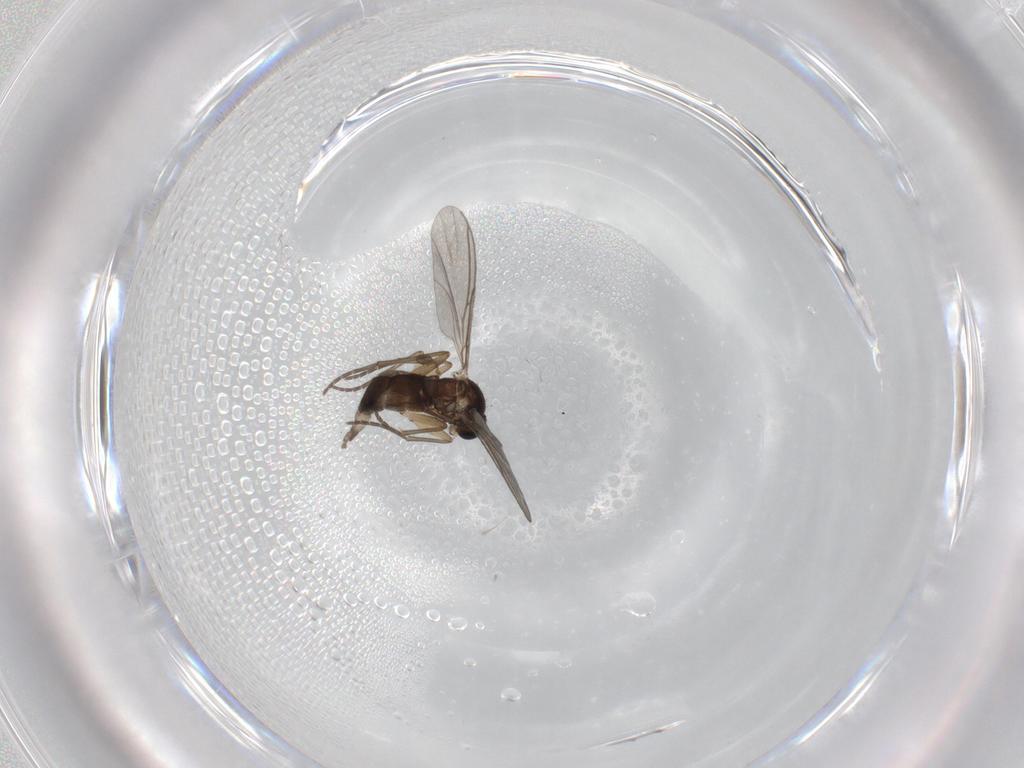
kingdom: Animalia
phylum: Arthropoda
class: Insecta
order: Diptera
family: Sciaridae
